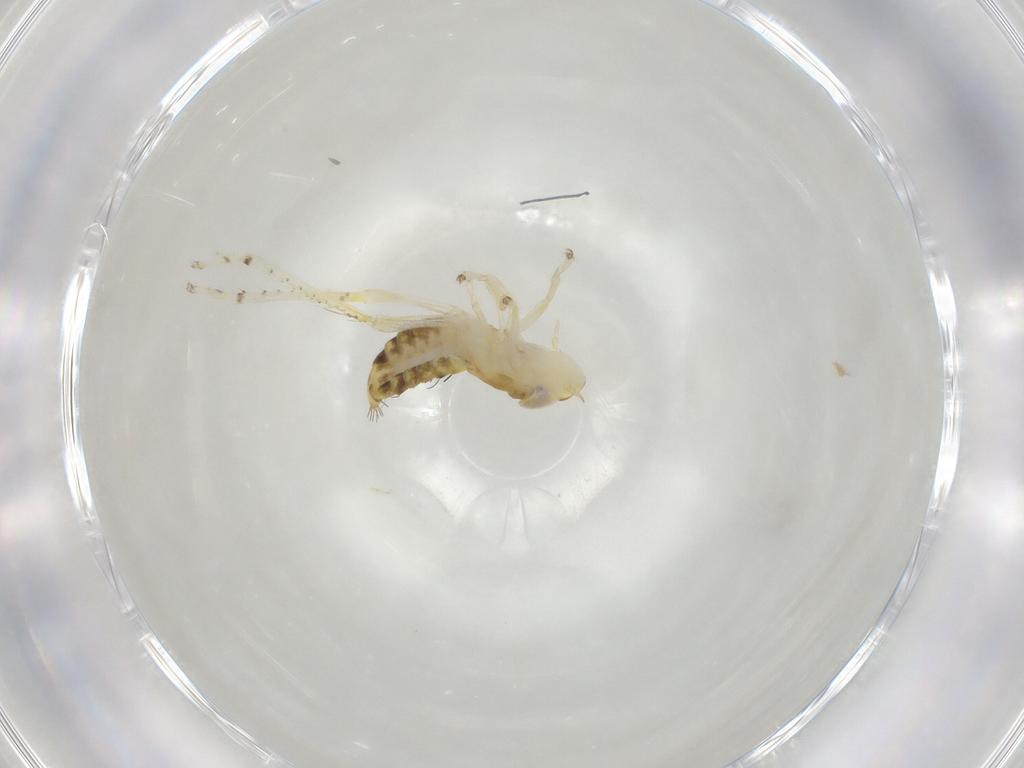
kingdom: Animalia
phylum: Arthropoda
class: Insecta
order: Hemiptera
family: Cicadellidae
